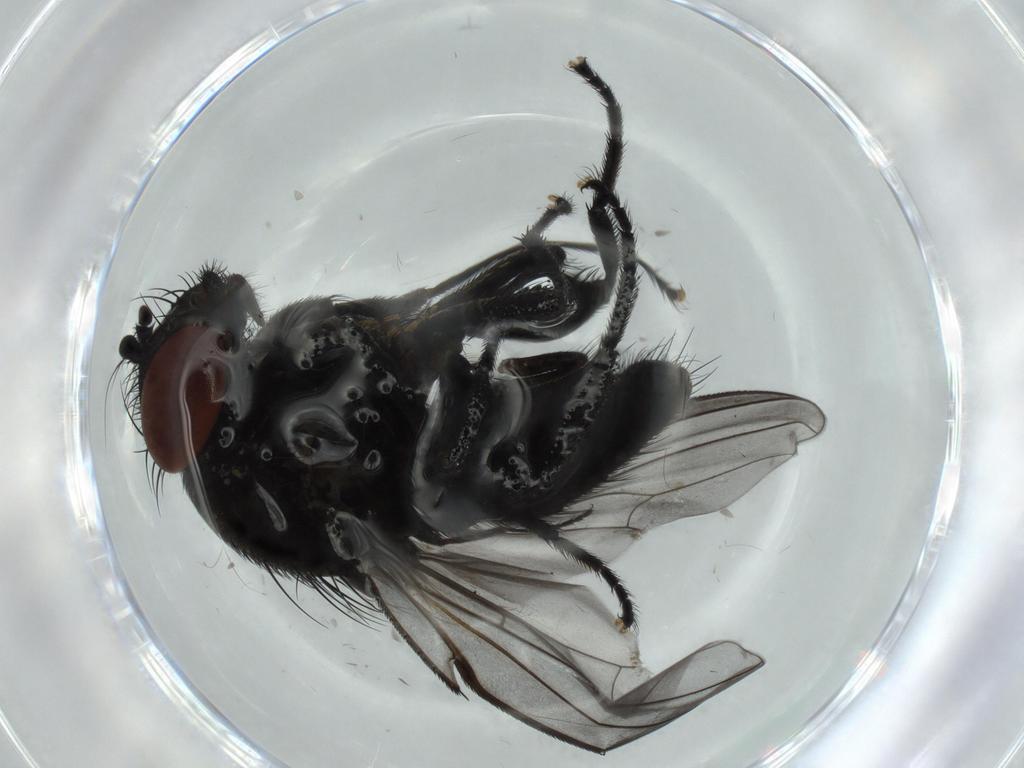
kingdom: Animalia
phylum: Arthropoda
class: Insecta
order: Diptera
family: Milichiidae
